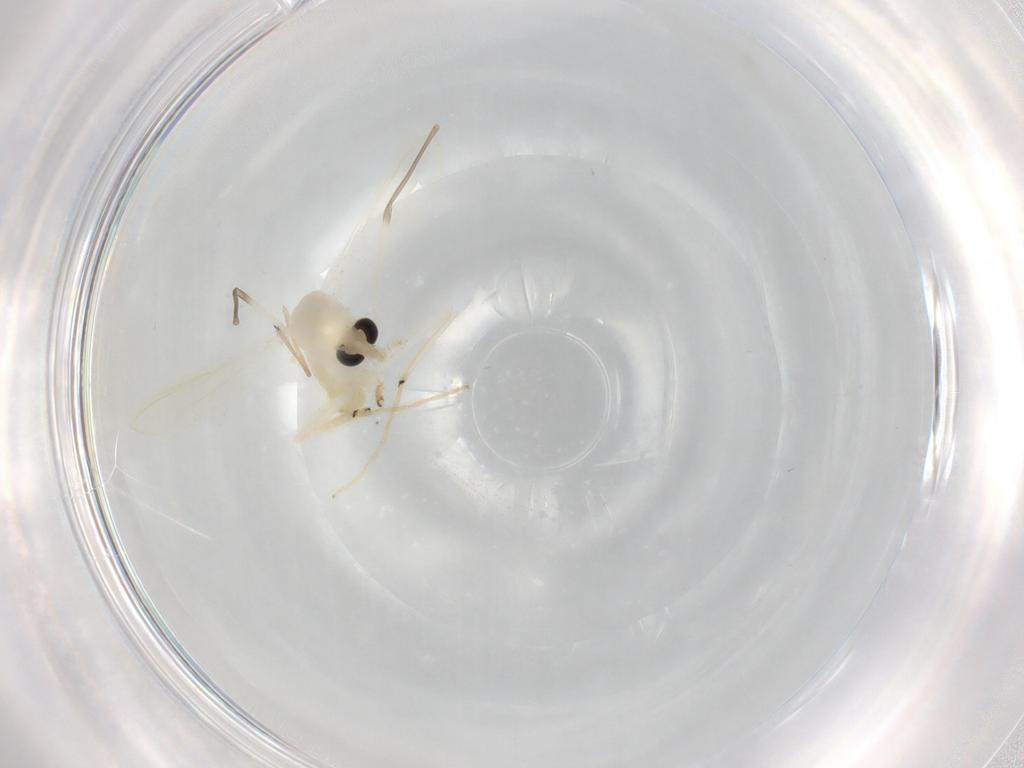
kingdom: Animalia
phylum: Arthropoda
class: Insecta
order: Diptera
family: Chironomidae
